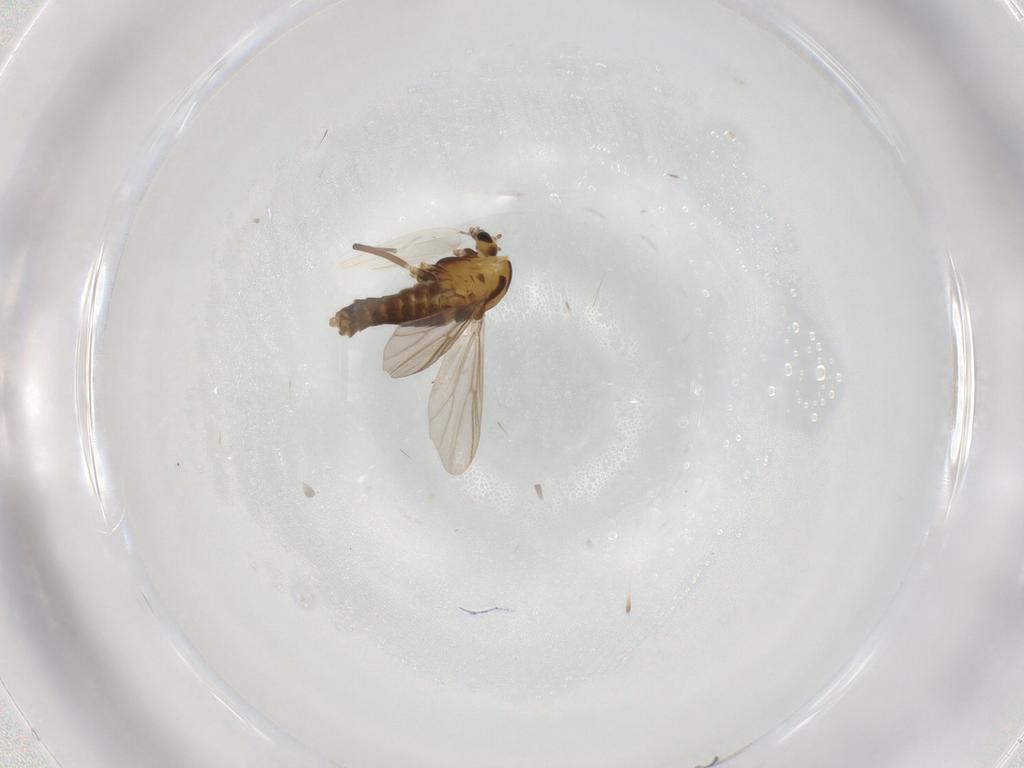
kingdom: Animalia
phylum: Arthropoda
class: Insecta
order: Diptera
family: Chironomidae
